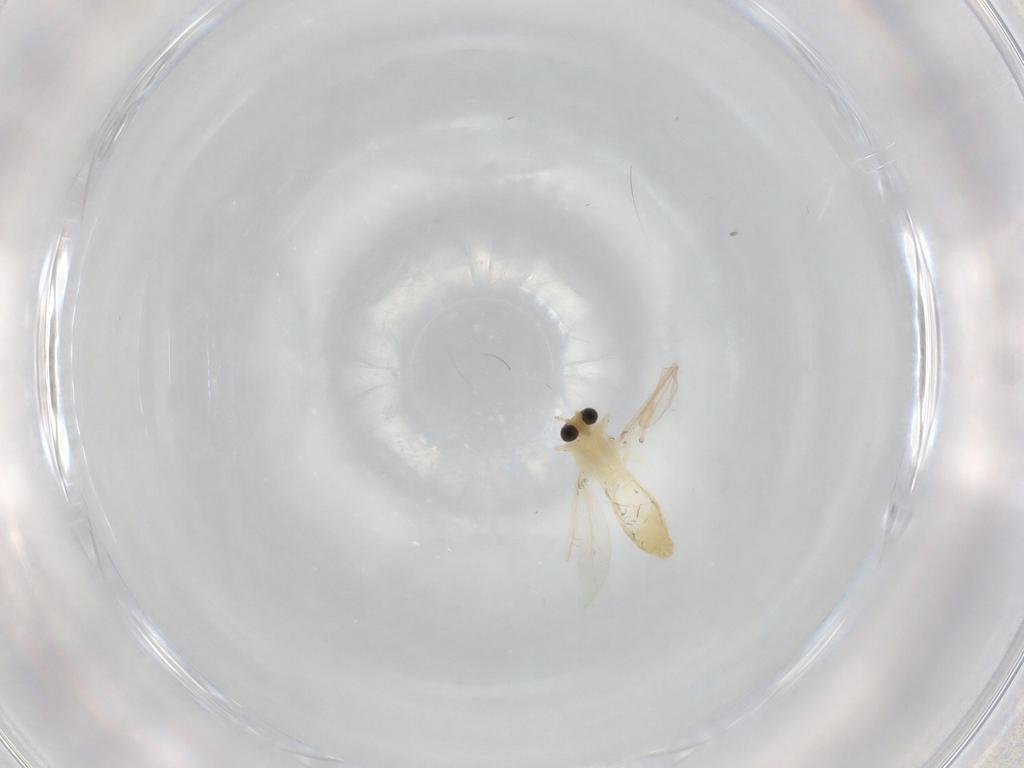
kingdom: Animalia
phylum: Arthropoda
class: Insecta
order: Diptera
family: Chironomidae
